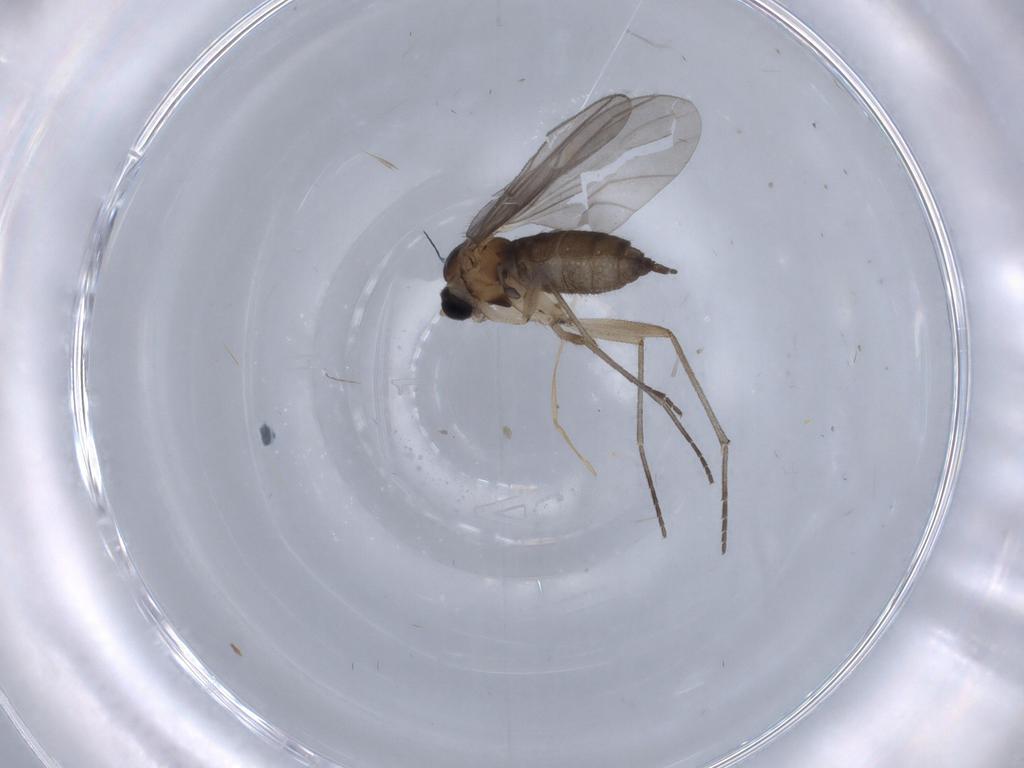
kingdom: Animalia
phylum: Arthropoda
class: Insecta
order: Diptera
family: Sciaridae
